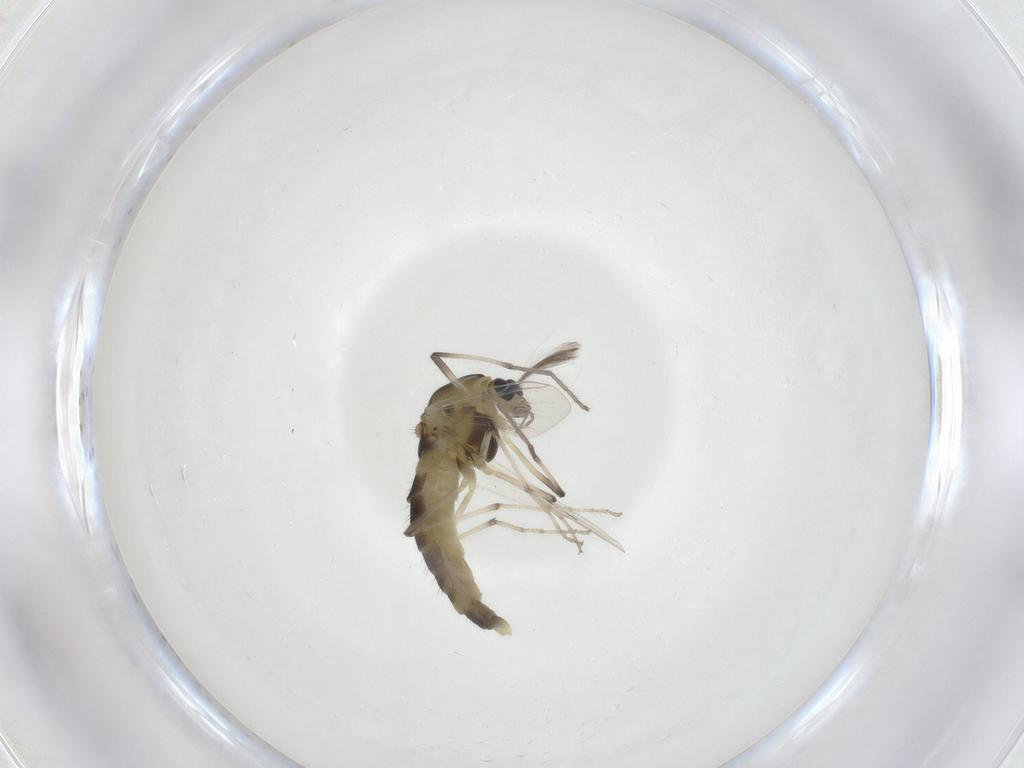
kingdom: Animalia
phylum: Arthropoda
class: Insecta
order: Diptera
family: Chironomidae
